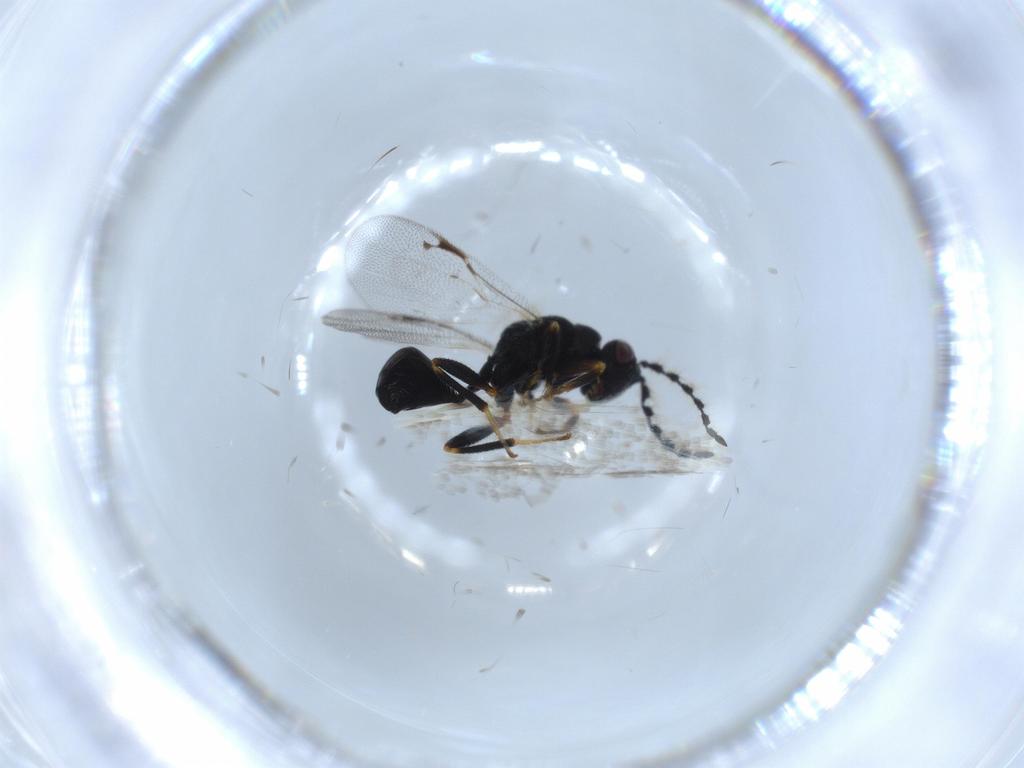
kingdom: Animalia
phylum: Arthropoda
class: Insecta
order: Hymenoptera
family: Eurytomidae
